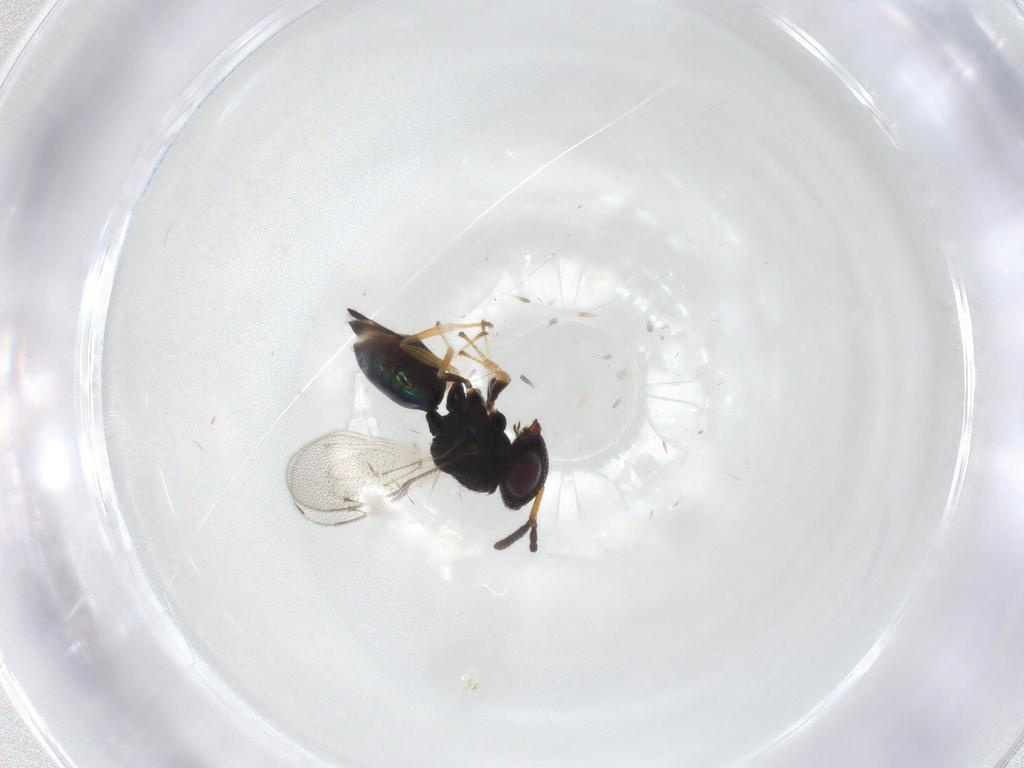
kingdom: Animalia
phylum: Arthropoda
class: Insecta
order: Hymenoptera
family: Pteromalidae
